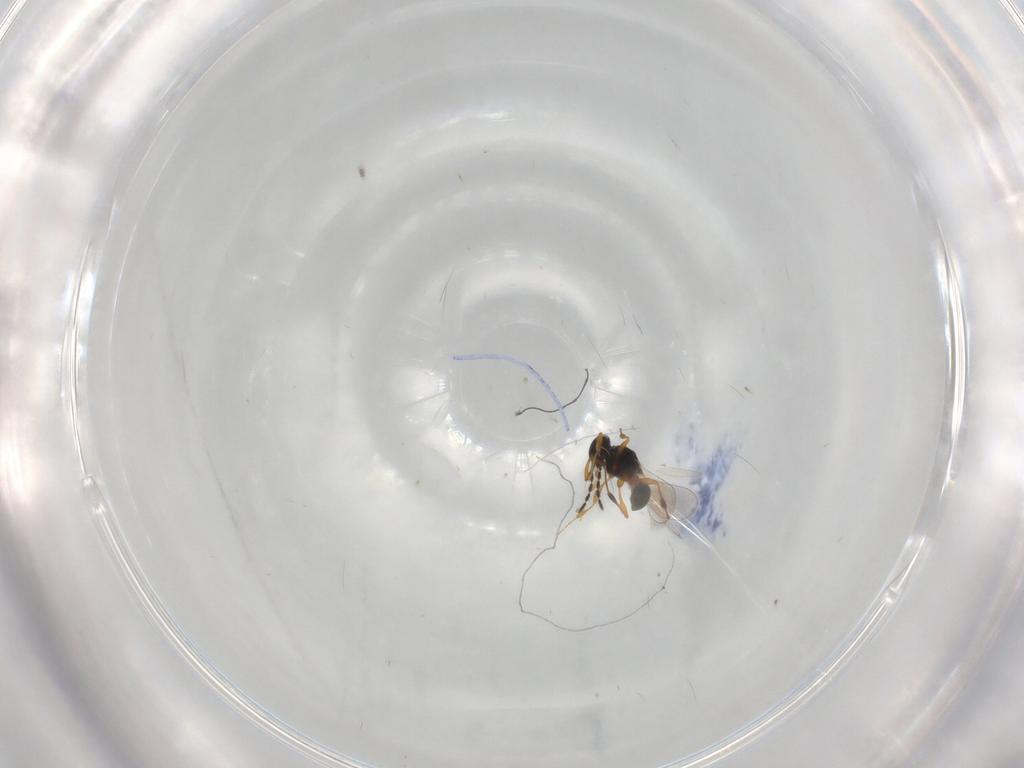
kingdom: Animalia
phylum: Arthropoda
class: Insecta
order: Hymenoptera
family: Platygastridae
